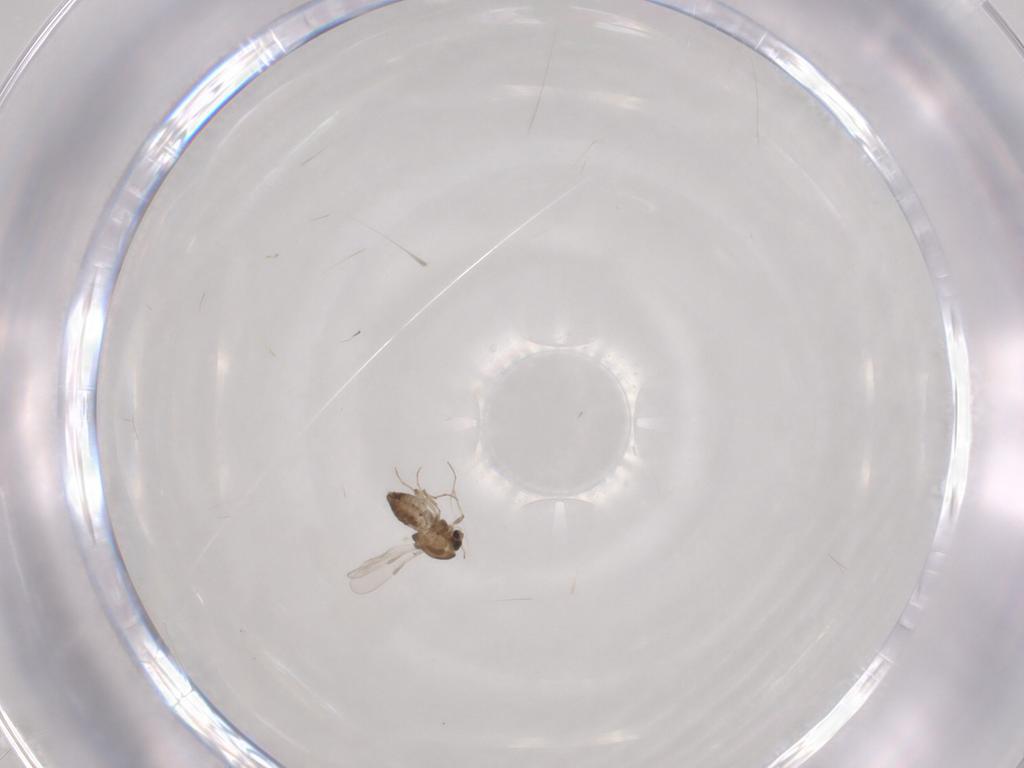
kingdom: Animalia
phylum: Arthropoda
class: Insecta
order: Diptera
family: Chironomidae
